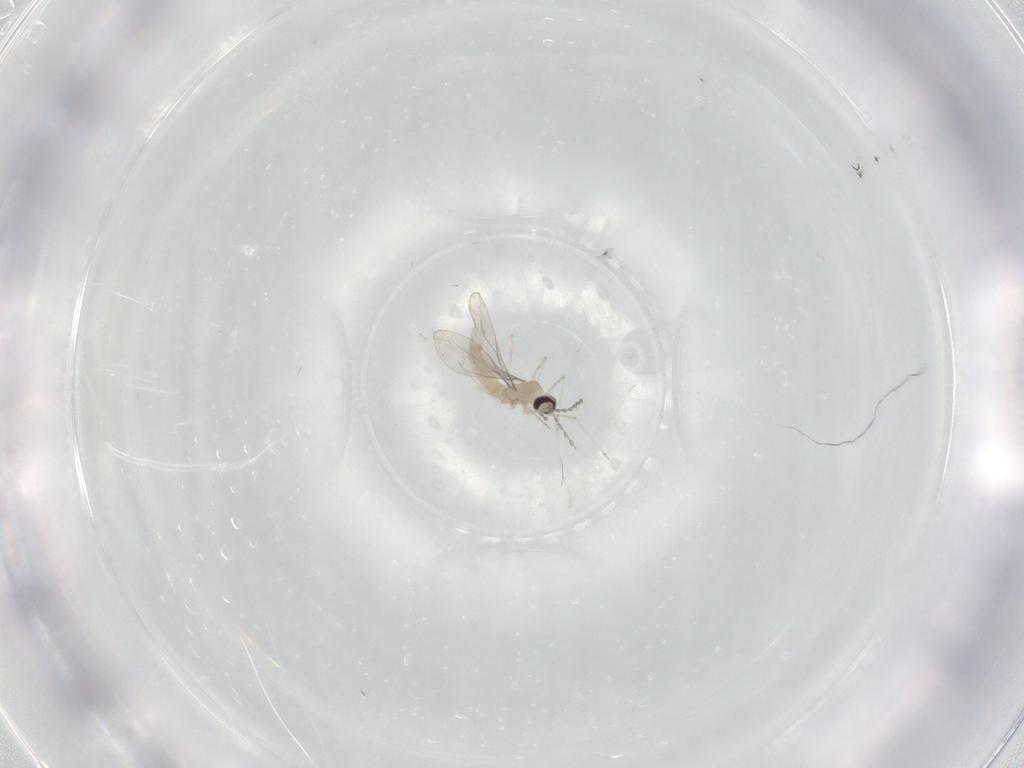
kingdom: Animalia
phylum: Arthropoda
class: Insecta
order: Diptera
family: Cecidomyiidae
